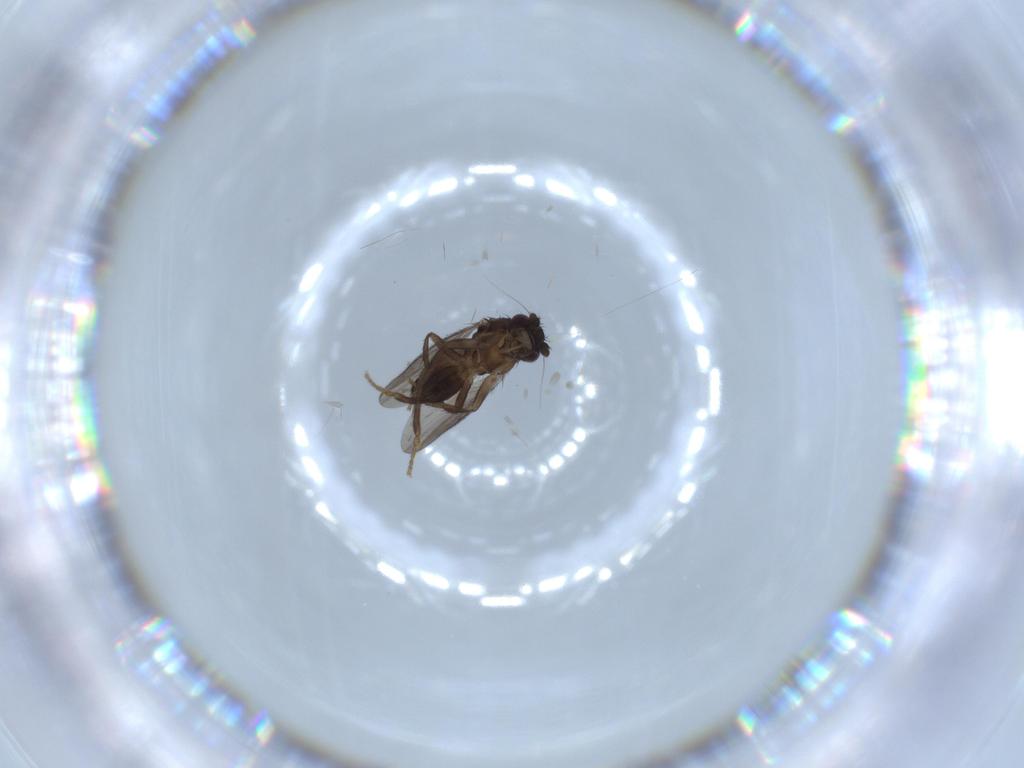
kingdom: Animalia
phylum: Arthropoda
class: Insecta
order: Diptera
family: Sphaeroceridae
